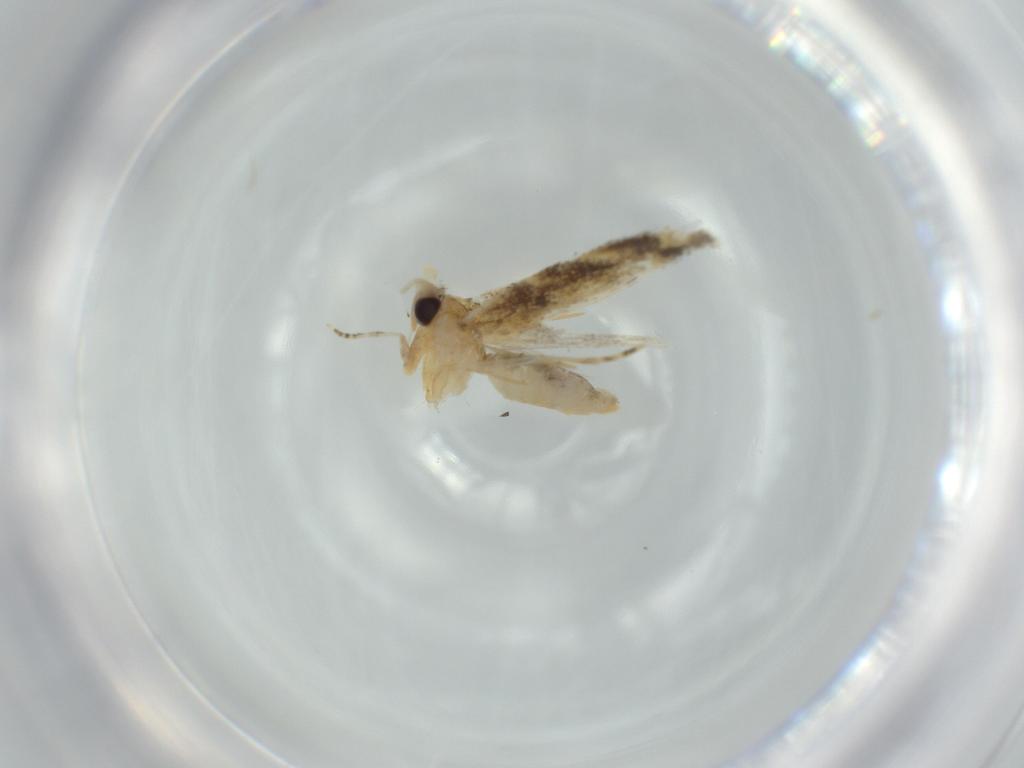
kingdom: Animalia
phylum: Arthropoda
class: Insecta
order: Lepidoptera
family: Bucculatricidae
